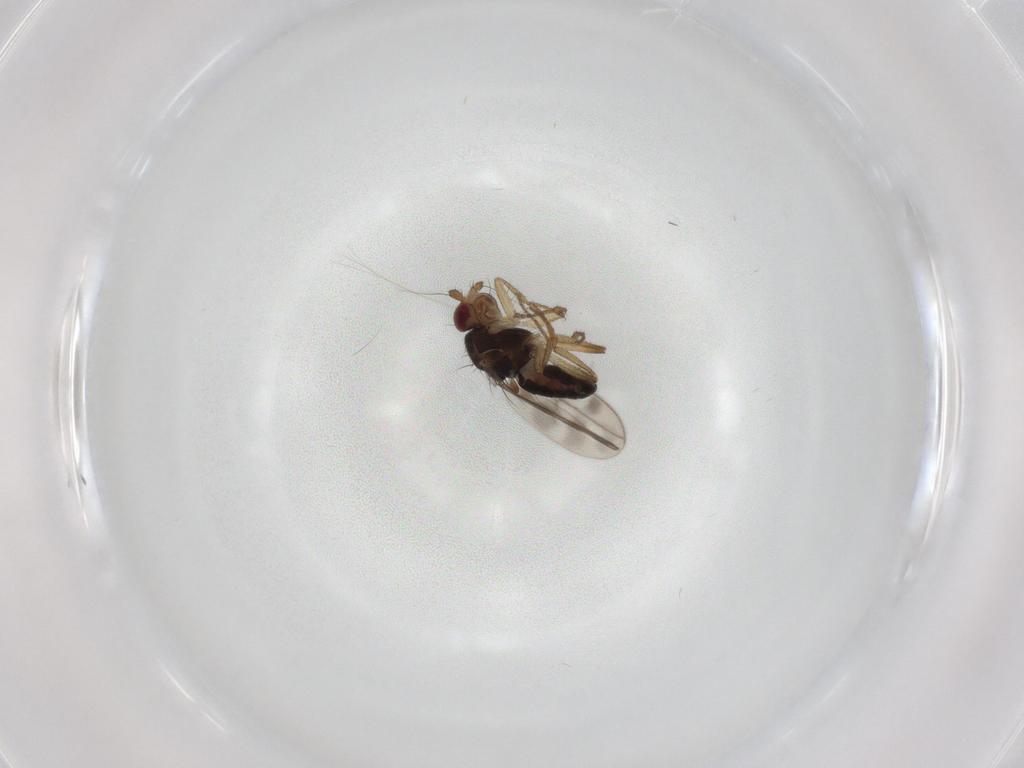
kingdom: Animalia
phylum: Arthropoda
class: Insecta
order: Diptera
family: Sphaeroceridae
